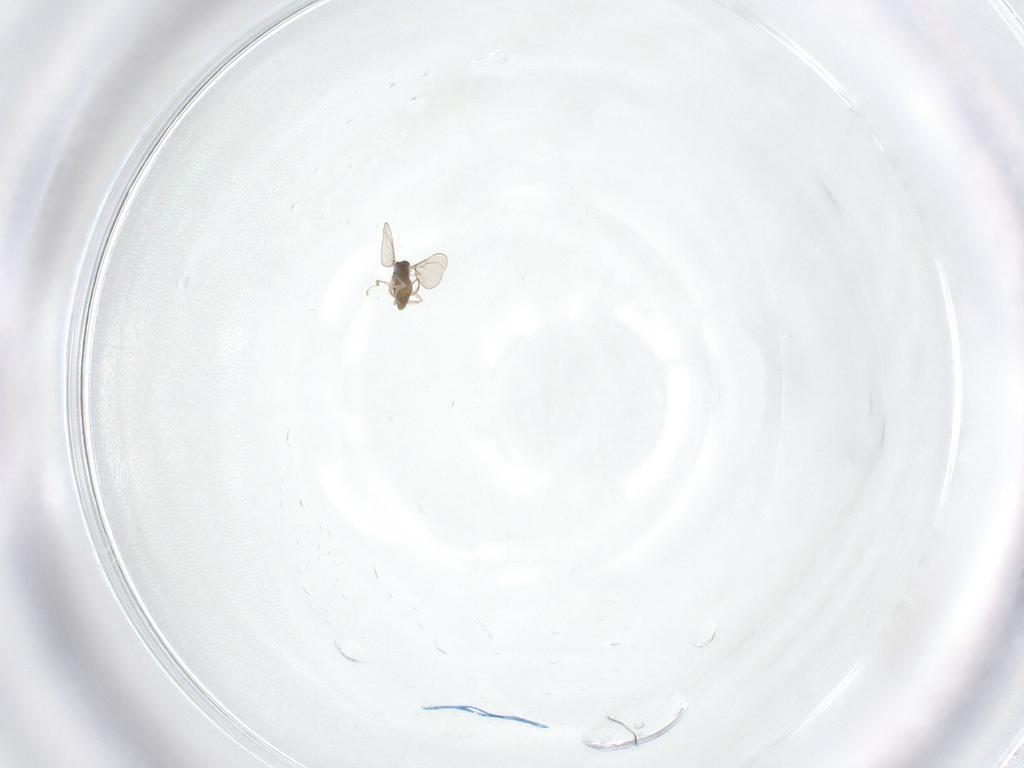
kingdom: Animalia
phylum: Arthropoda
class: Insecta
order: Diptera
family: Cecidomyiidae
